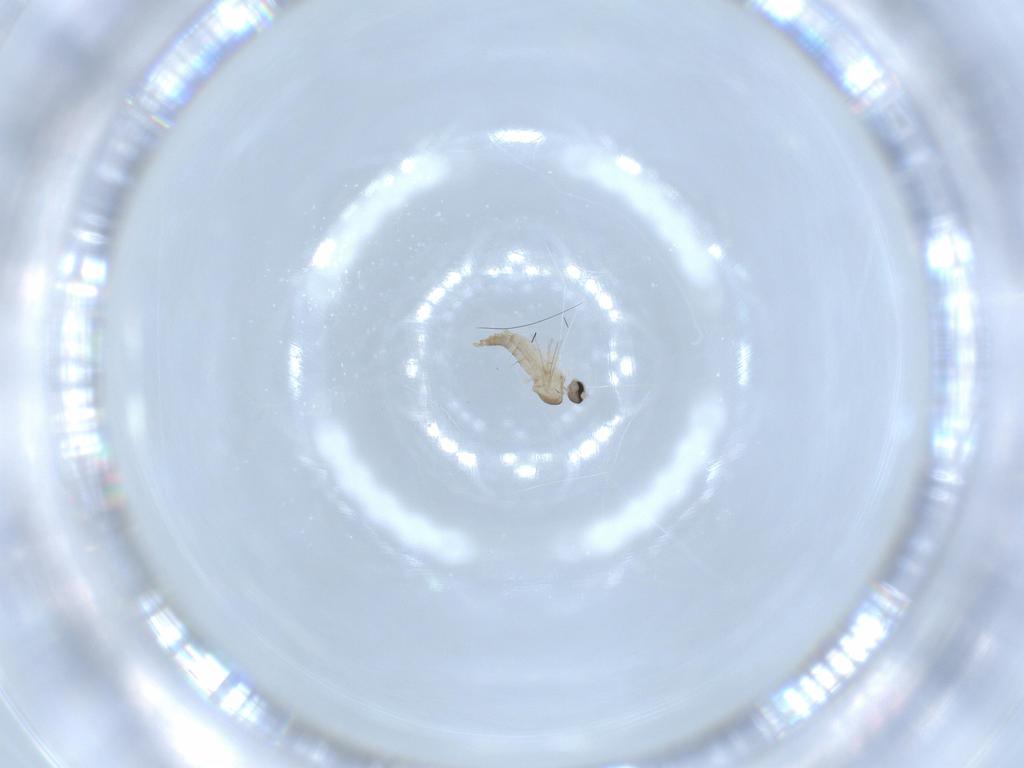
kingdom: Animalia
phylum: Arthropoda
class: Insecta
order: Diptera
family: Cecidomyiidae
